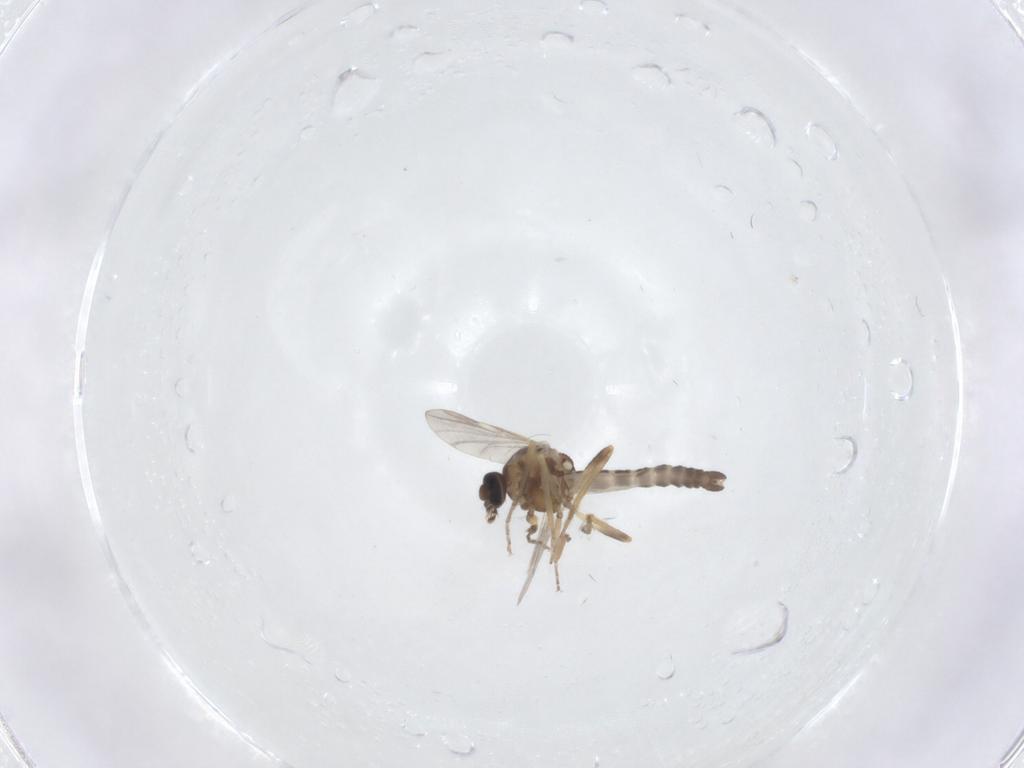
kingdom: Animalia
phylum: Arthropoda
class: Insecta
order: Diptera
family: Ceratopogonidae
